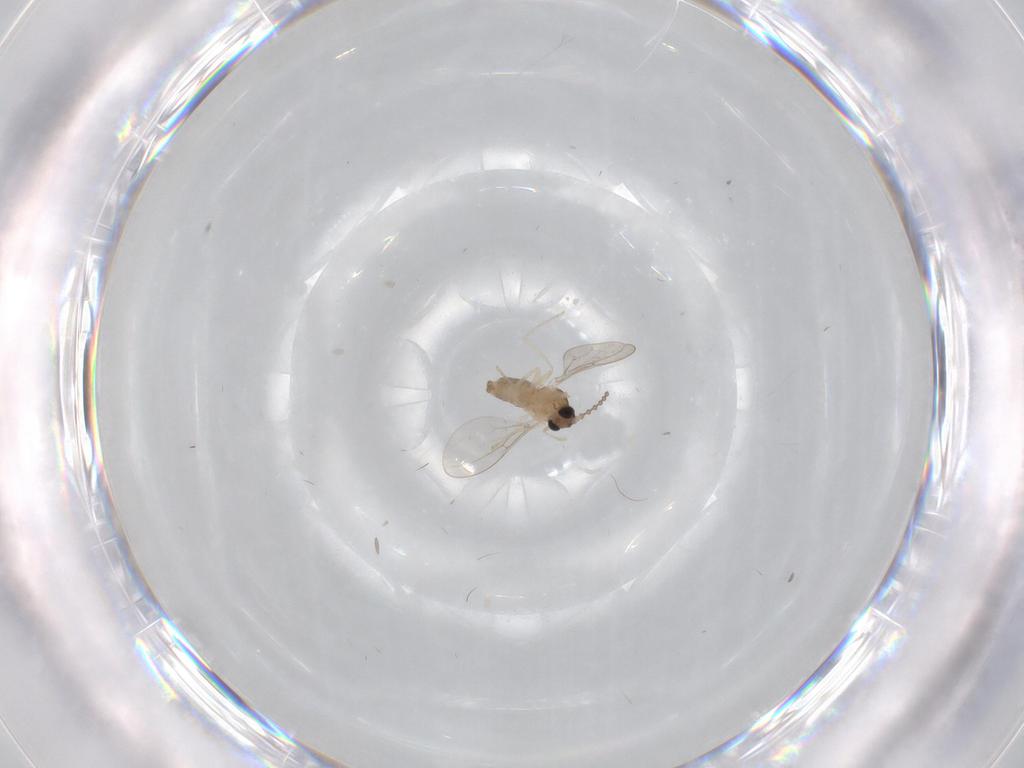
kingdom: Animalia
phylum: Arthropoda
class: Insecta
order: Diptera
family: Cecidomyiidae
